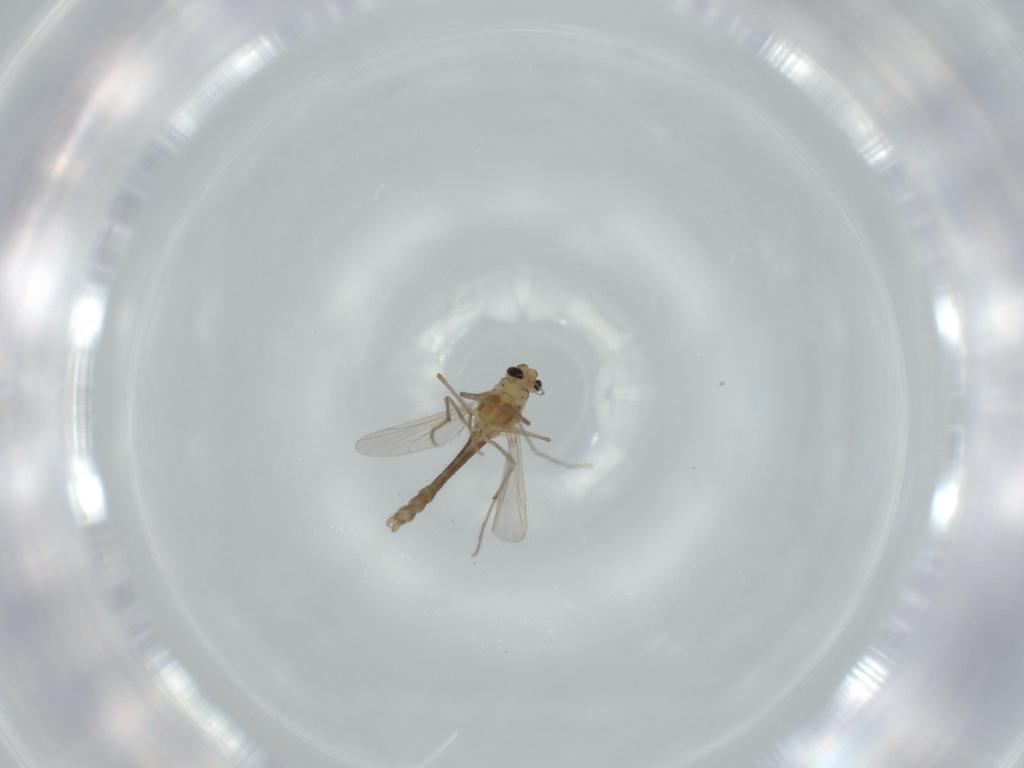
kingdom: Animalia
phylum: Arthropoda
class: Insecta
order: Diptera
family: Chironomidae
